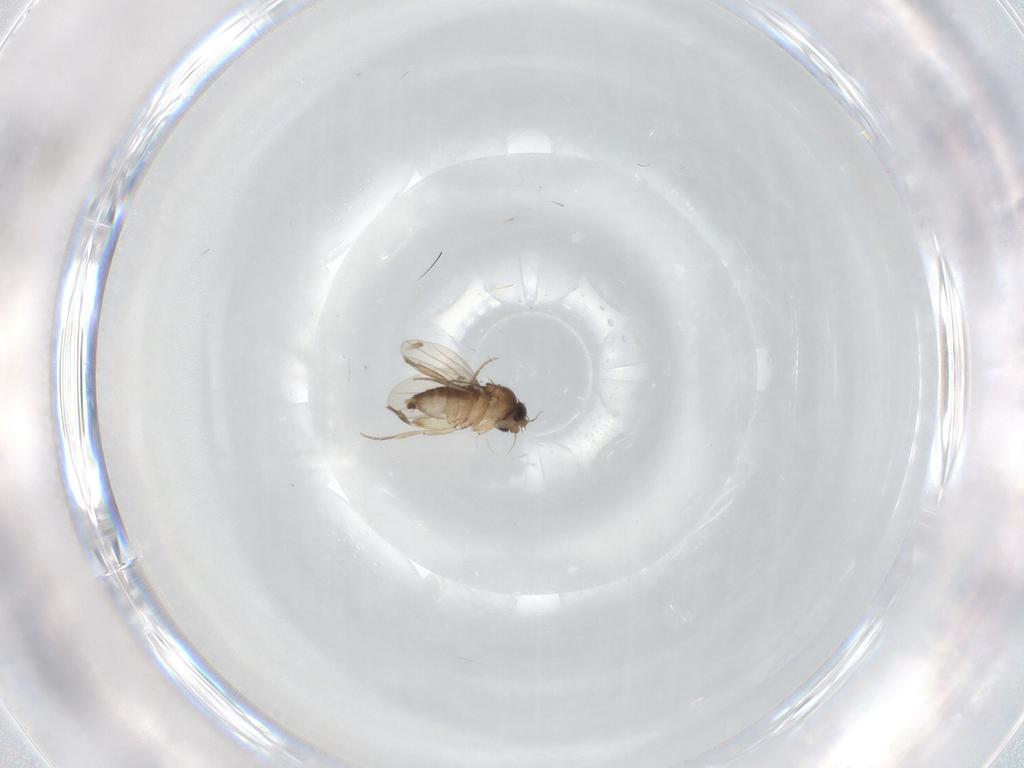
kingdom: Animalia
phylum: Arthropoda
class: Insecta
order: Diptera
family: Phoridae
